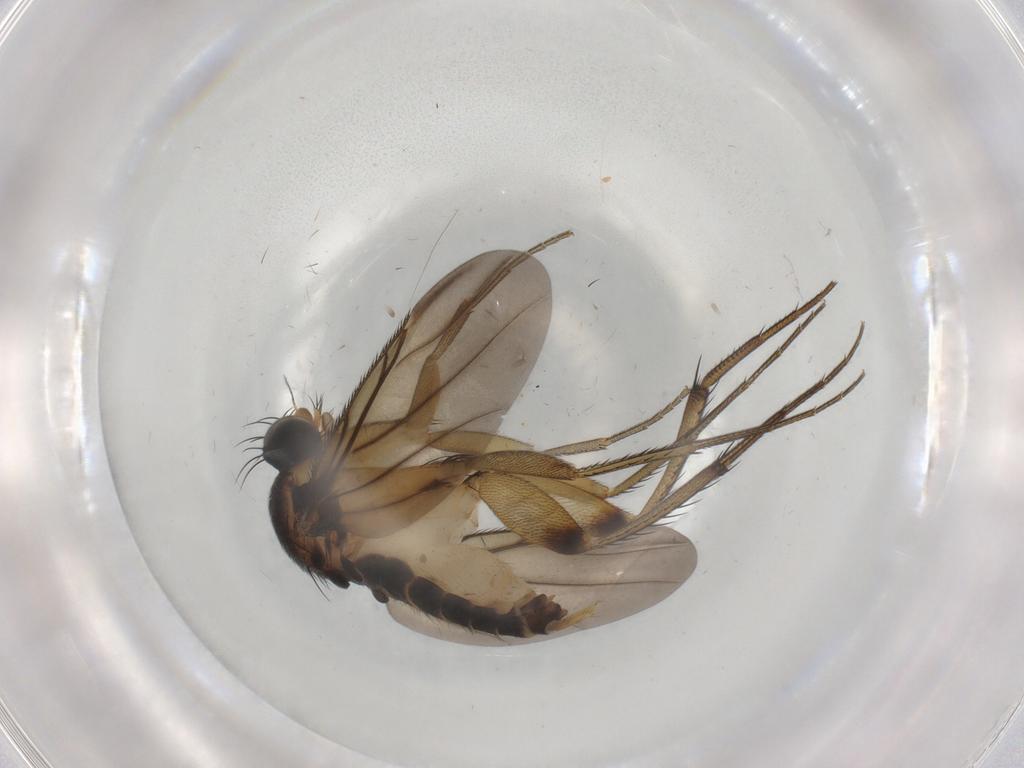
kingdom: Animalia
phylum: Arthropoda
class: Insecta
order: Diptera
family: Phoridae
